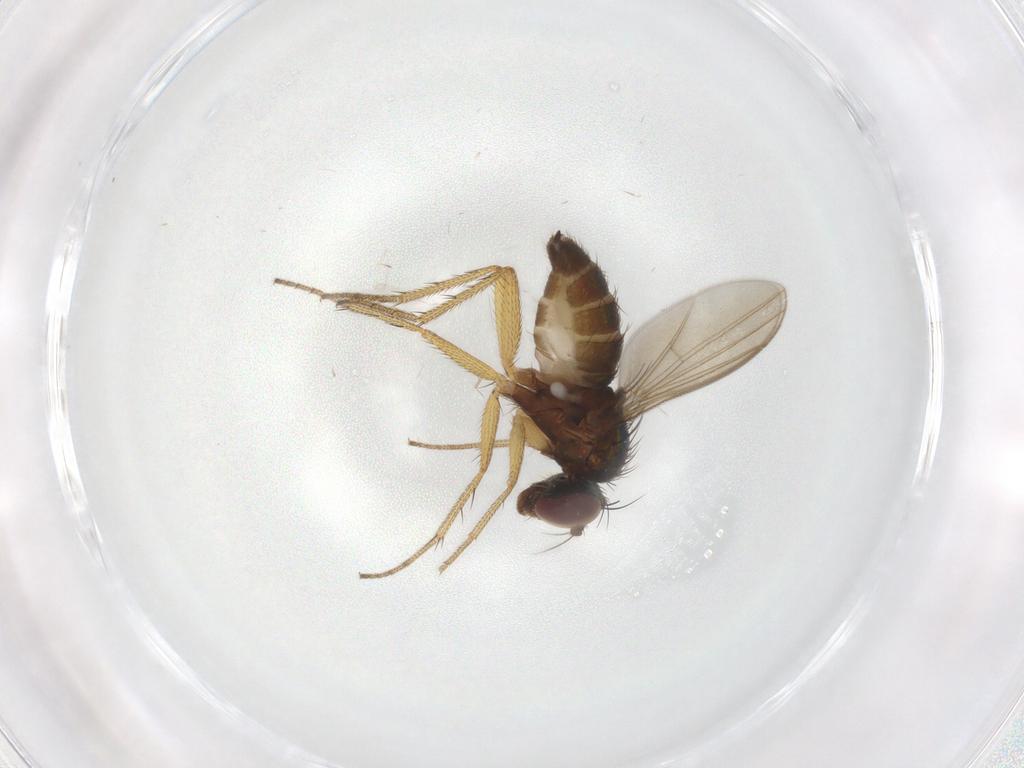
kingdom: Animalia
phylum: Arthropoda
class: Insecta
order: Diptera
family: Dolichopodidae
